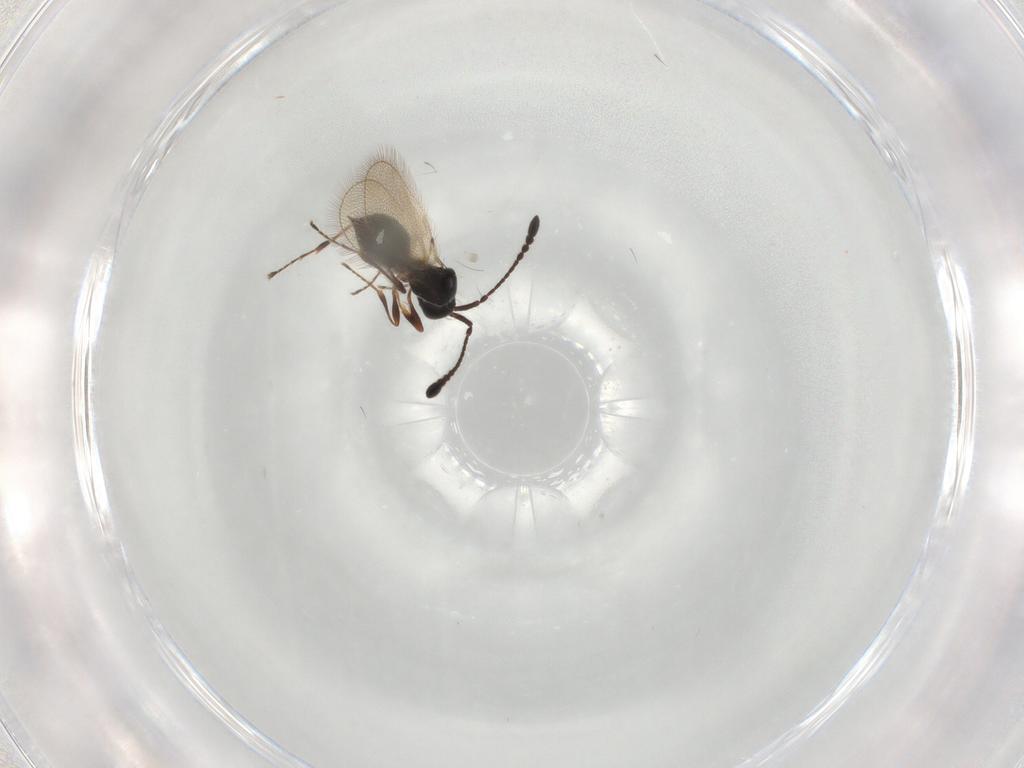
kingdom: Animalia
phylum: Arthropoda
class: Insecta
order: Hymenoptera
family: Diapriidae
